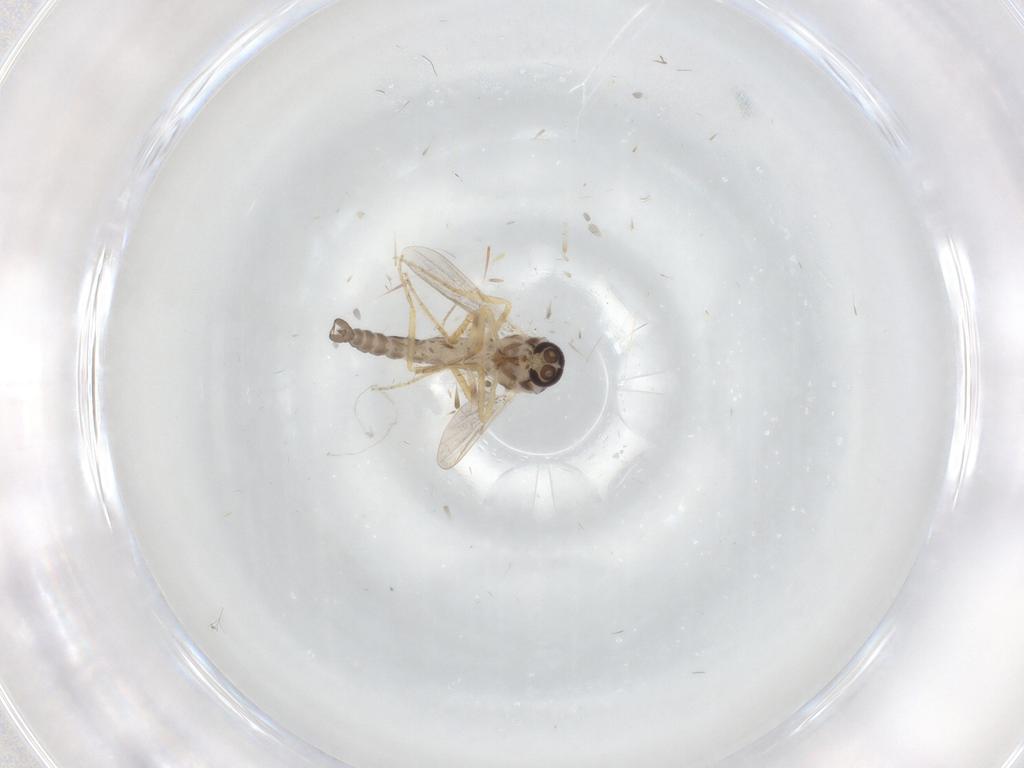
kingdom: Animalia
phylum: Arthropoda
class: Insecta
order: Diptera
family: Ceratopogonidae
